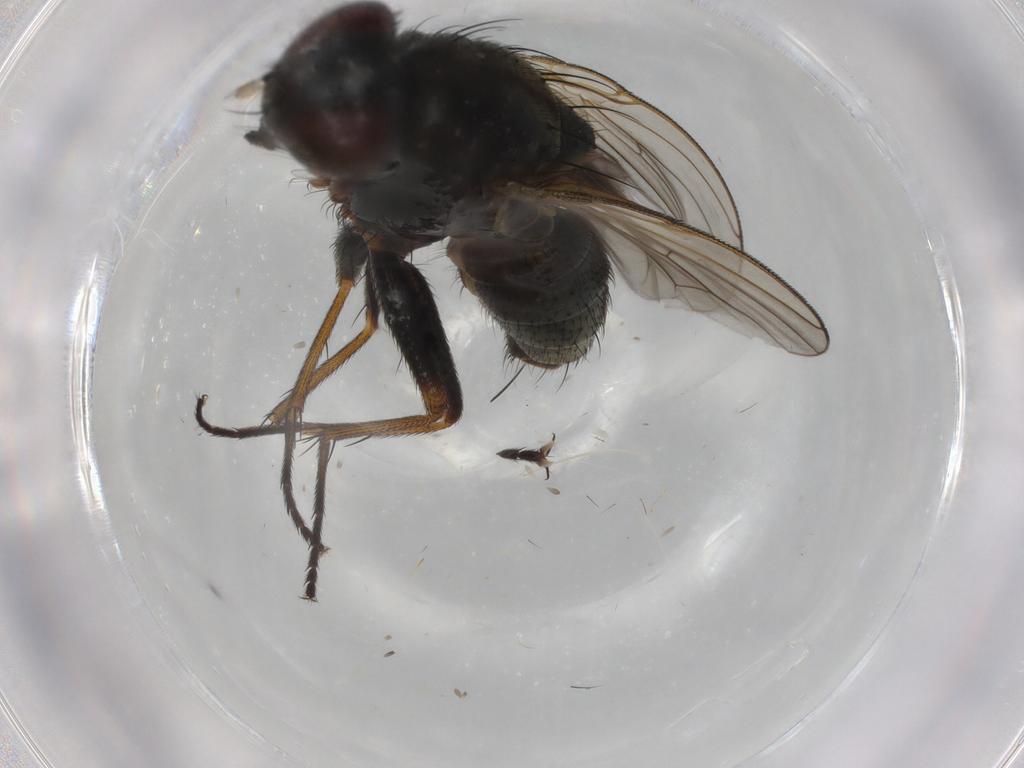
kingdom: Animalia
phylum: Arthropoda
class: Insecta
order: Diptera
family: Muscidae
